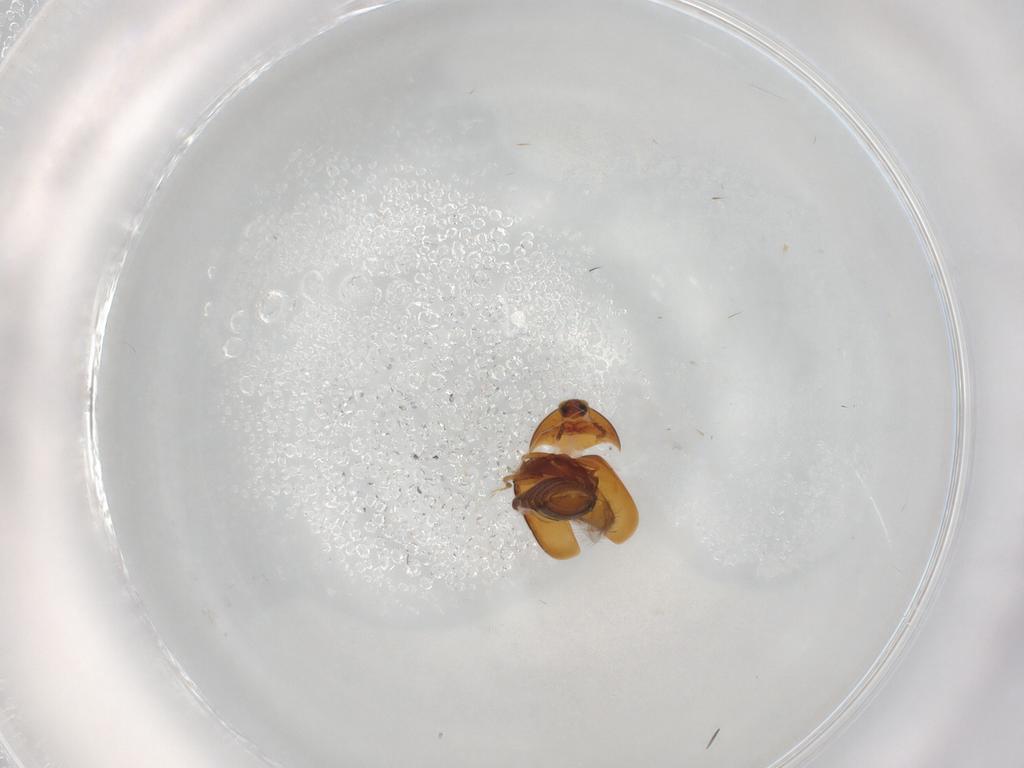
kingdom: Animalia
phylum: Arthropoda
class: Insecta
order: Coleoptera
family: Corylophidae
